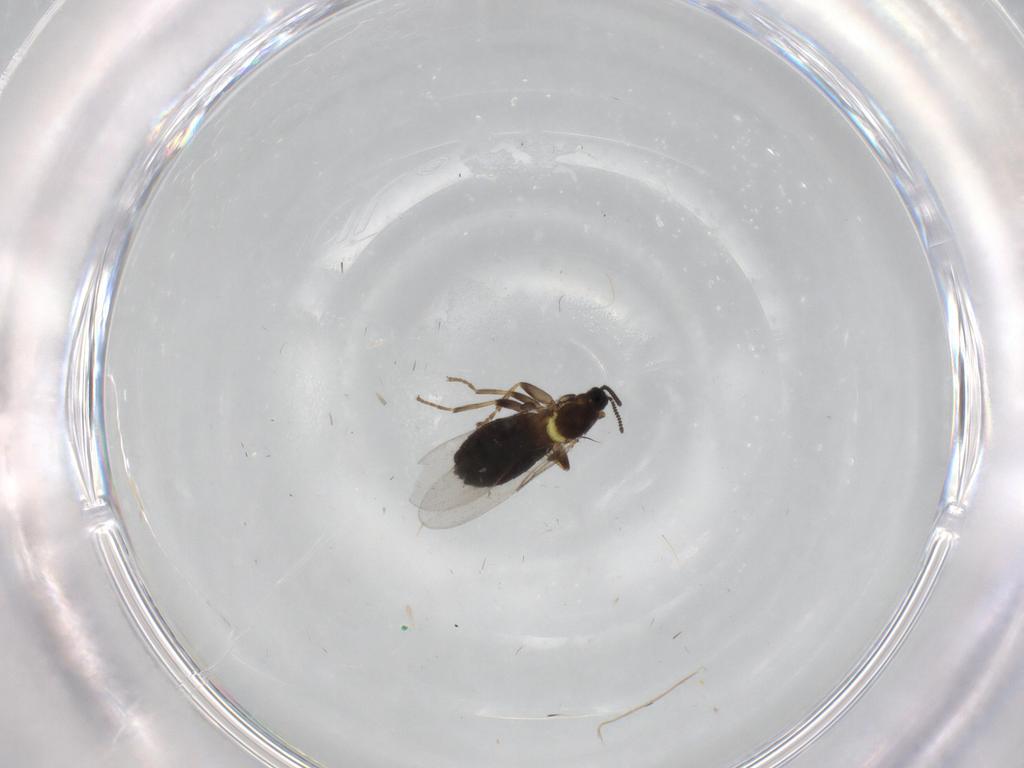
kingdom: Animalia
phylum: Arthropoda
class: Insecta
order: Diptera
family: Scatopsidae
